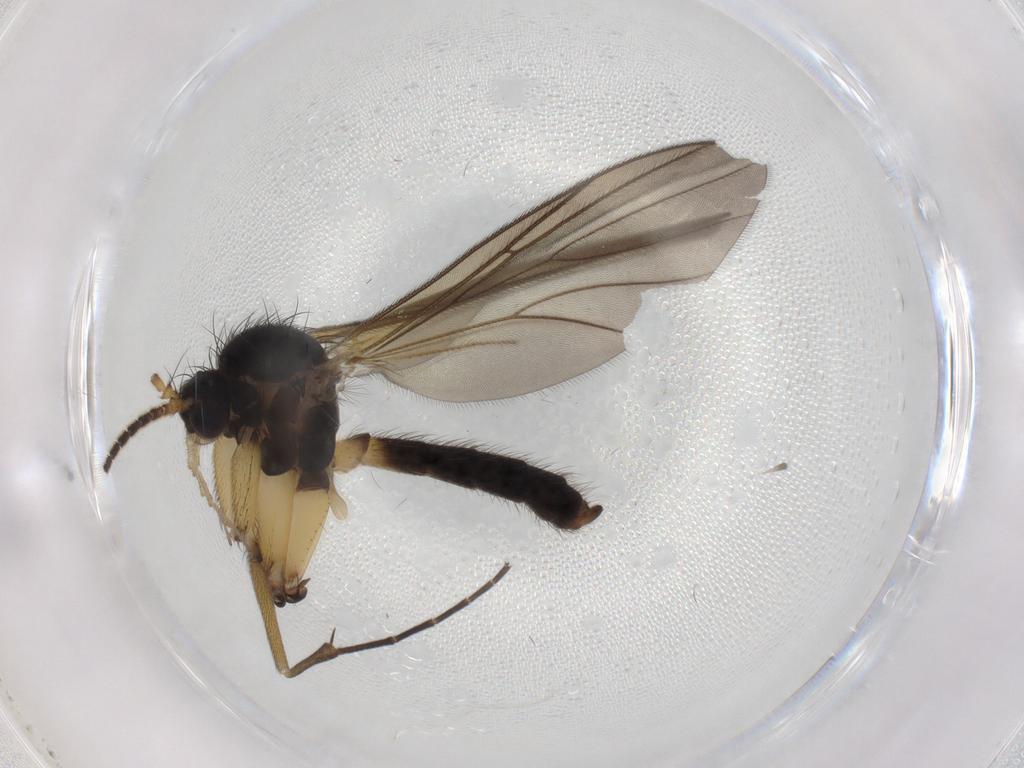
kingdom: Animalia
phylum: Arthropoda
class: Insecta
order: Diptera
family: Mycetophilidae
